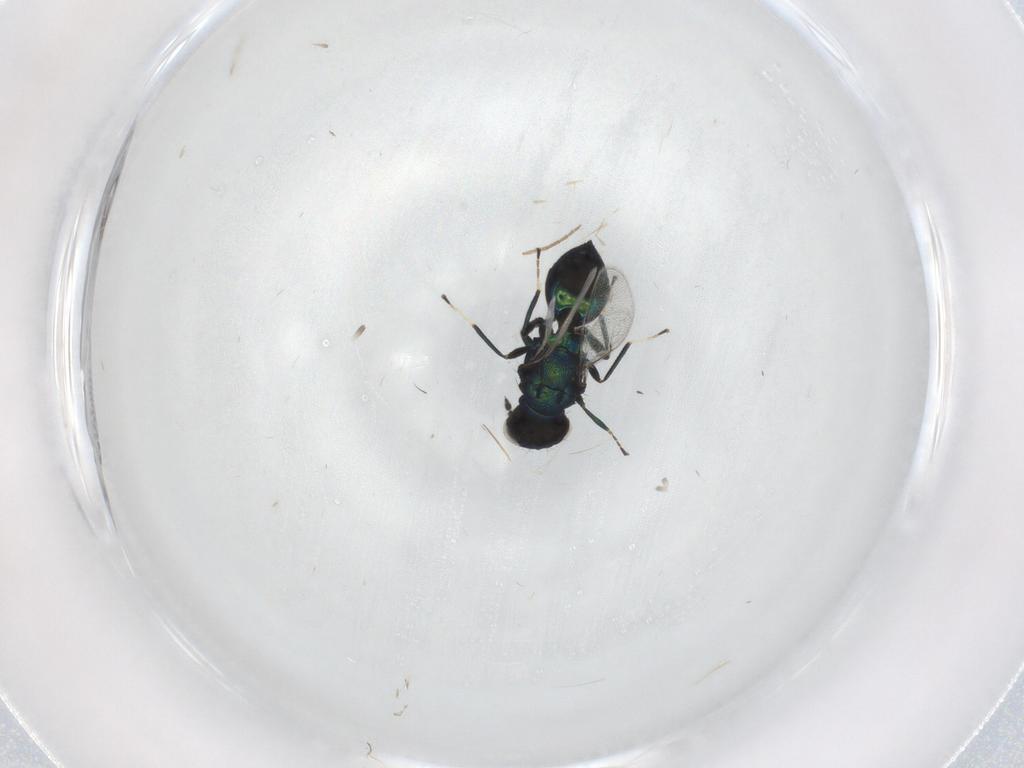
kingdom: Animalia
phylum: Arthropoda
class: Insecta
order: Hymenoptera
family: Eulophidae
